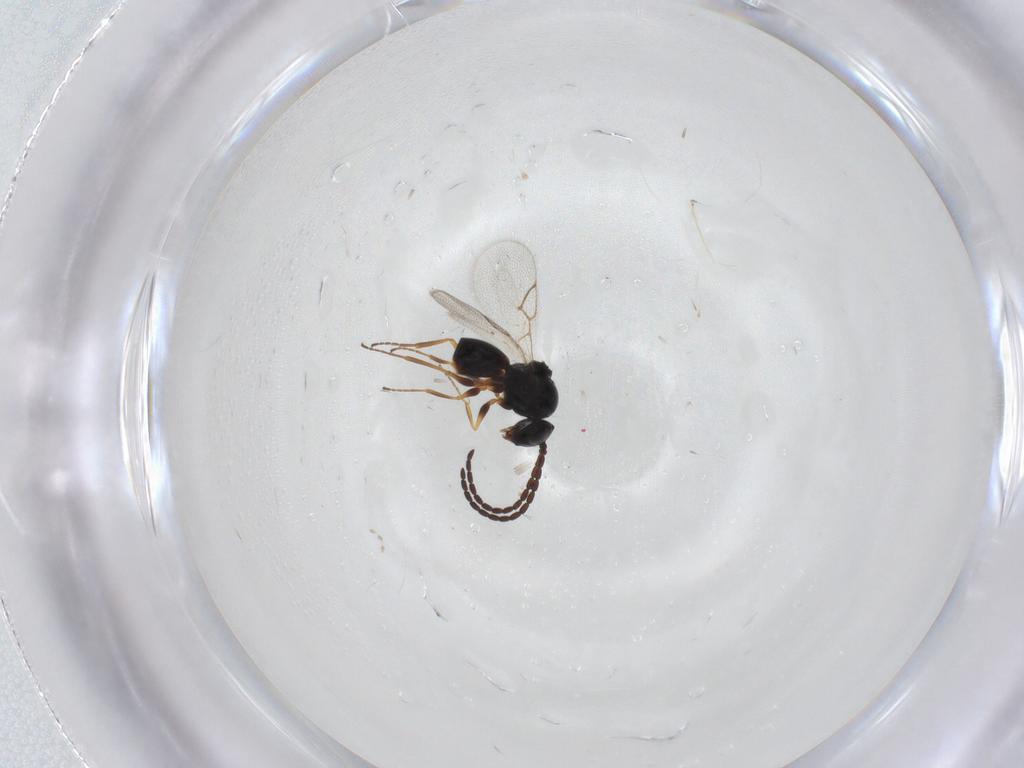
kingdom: Animalia
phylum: Arthropoda
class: Insecta
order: Hymenoptera
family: Figitidae
